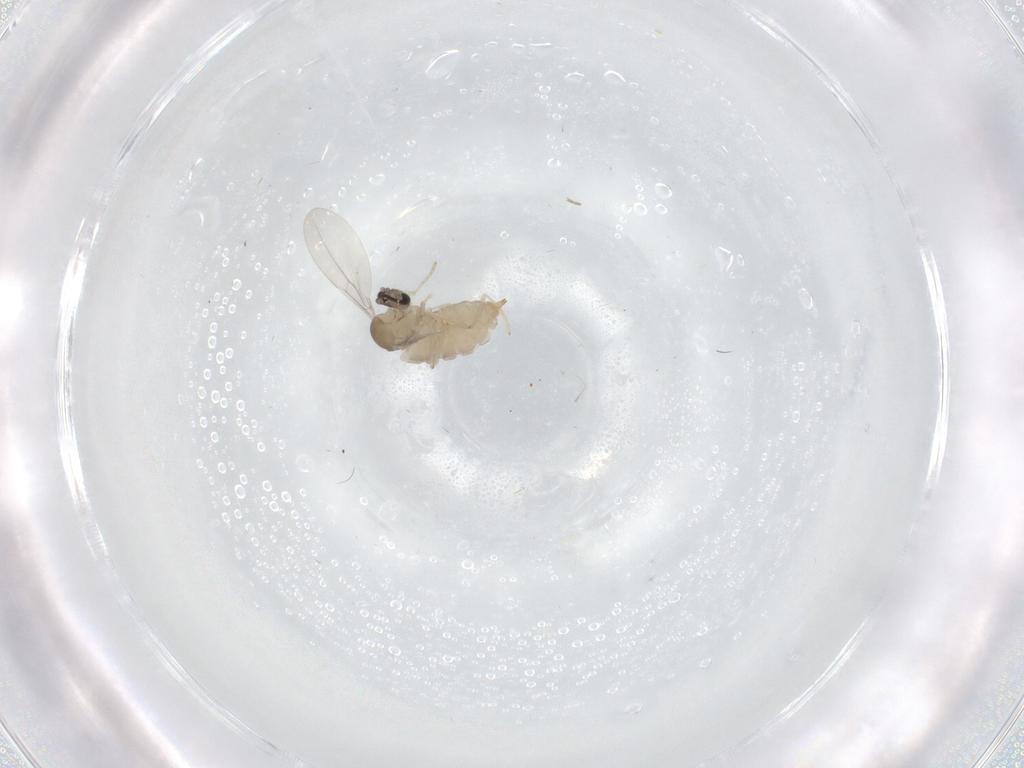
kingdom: Animalia
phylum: Arthropoda
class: Insecta
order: Diptera
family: Cecidomyiidae
